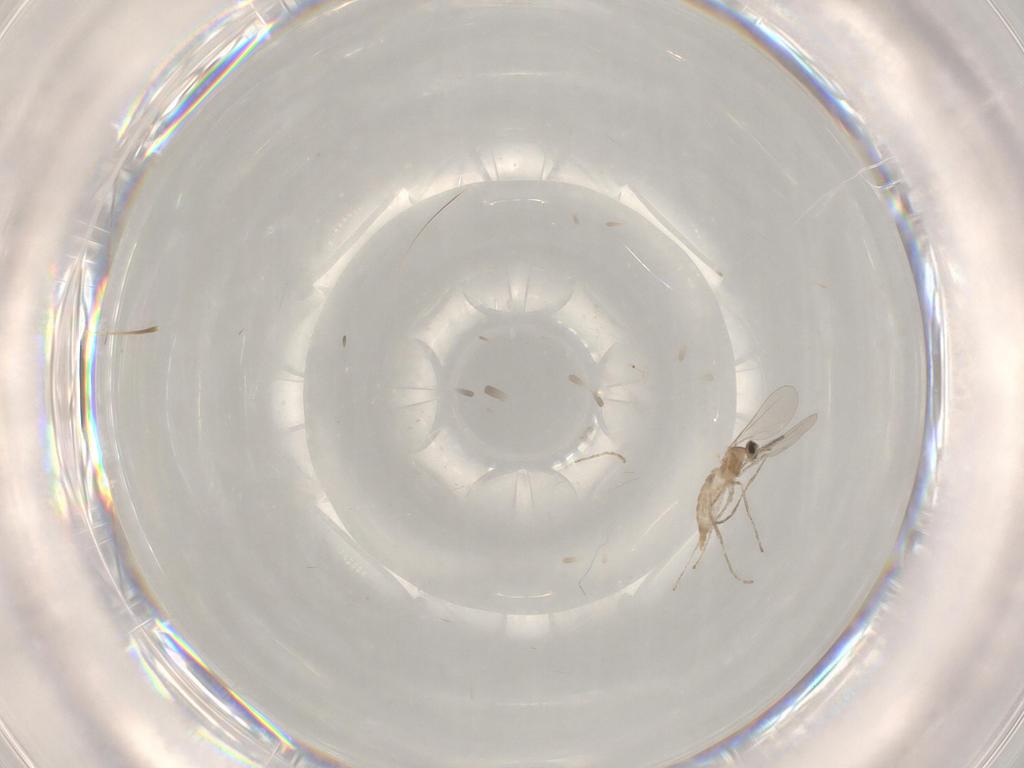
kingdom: Animalia
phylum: Arthropoda
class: Insecta
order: Diptera
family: Cecidomyiidae
